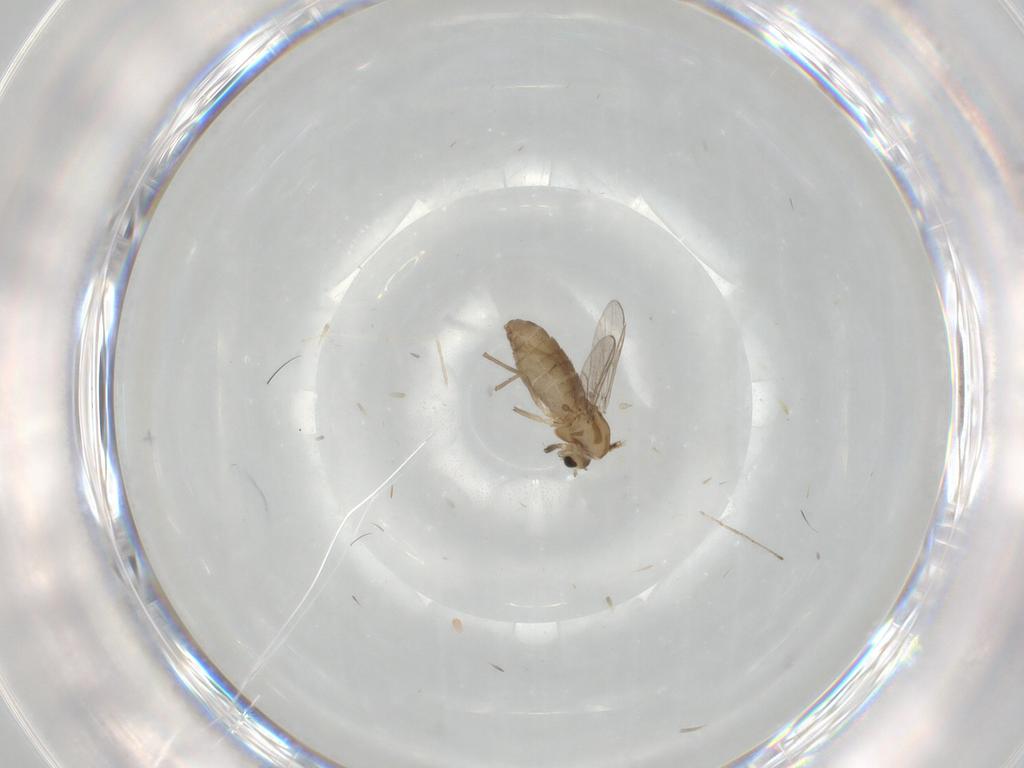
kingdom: Animalia
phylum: Arthropoda
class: Insecta
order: Diptera
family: Chironomidae
